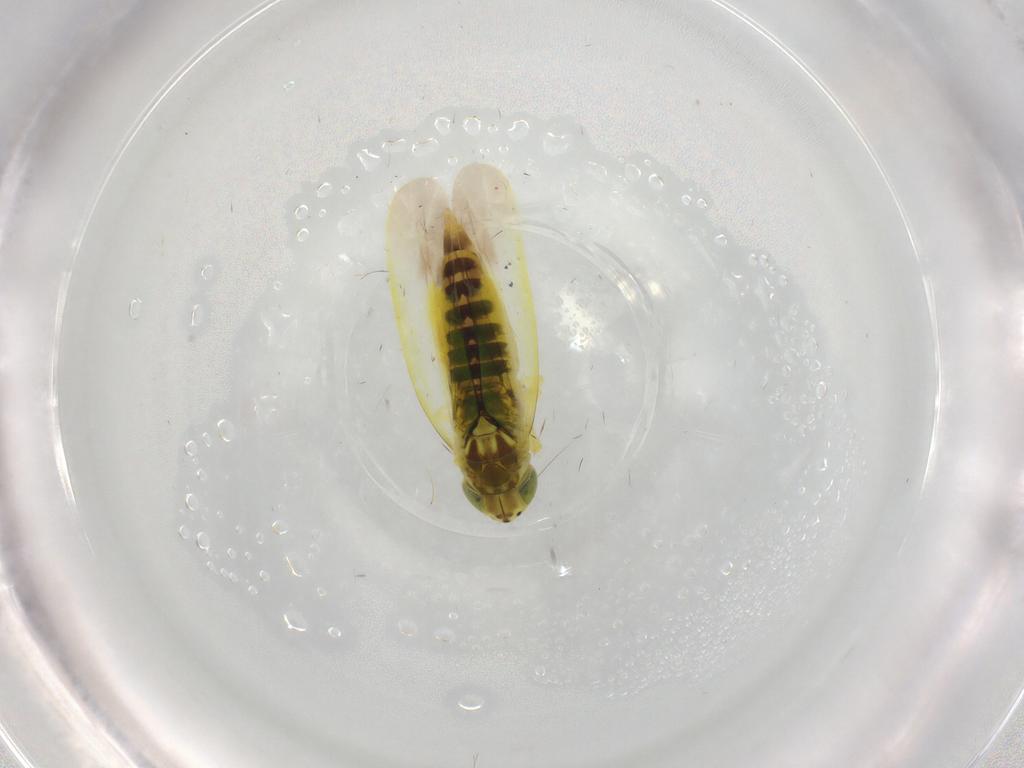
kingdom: Animalia
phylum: Arthropoda
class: Insecta
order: Hemiptera
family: Cicadellidae
